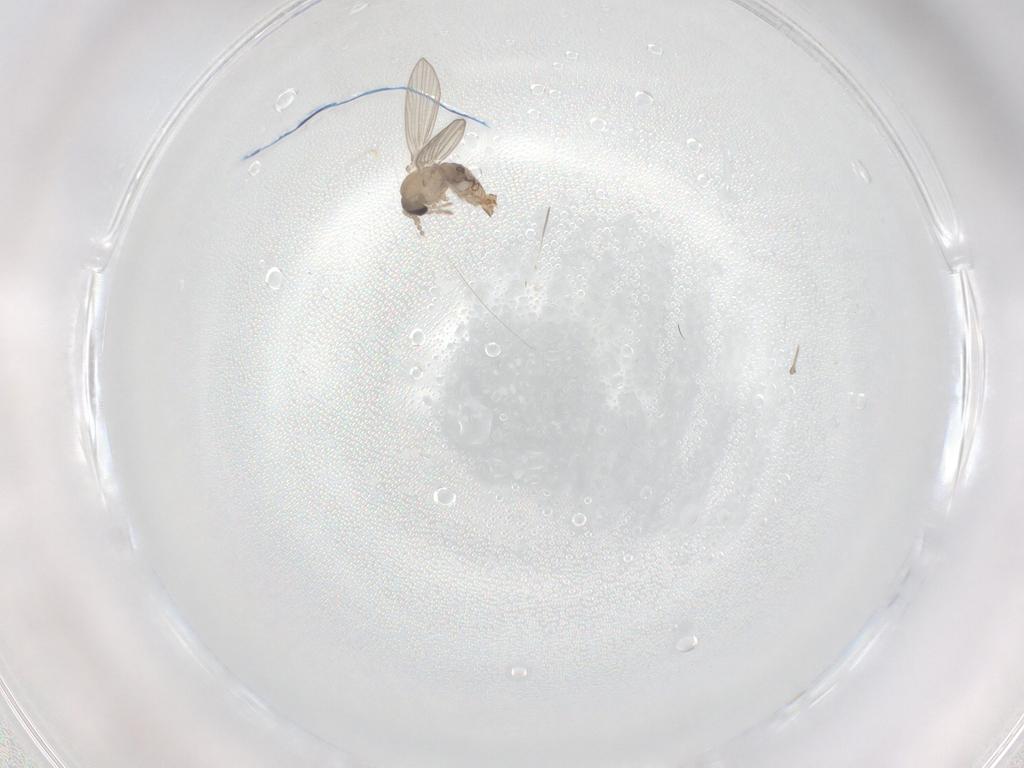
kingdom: Animalia
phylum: Arthropoda
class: Insecta
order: Diptera
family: Psychodidae
